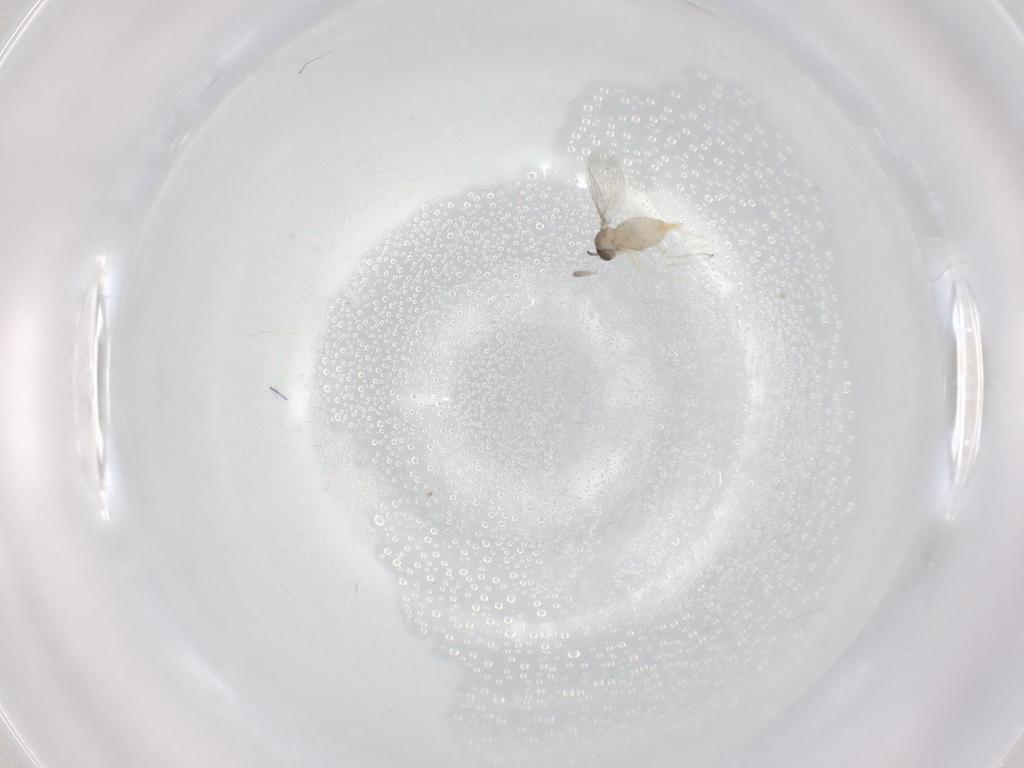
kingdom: Animalia
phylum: Arthropoda
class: Insecta
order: Diptera
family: Cecidomyiidae
